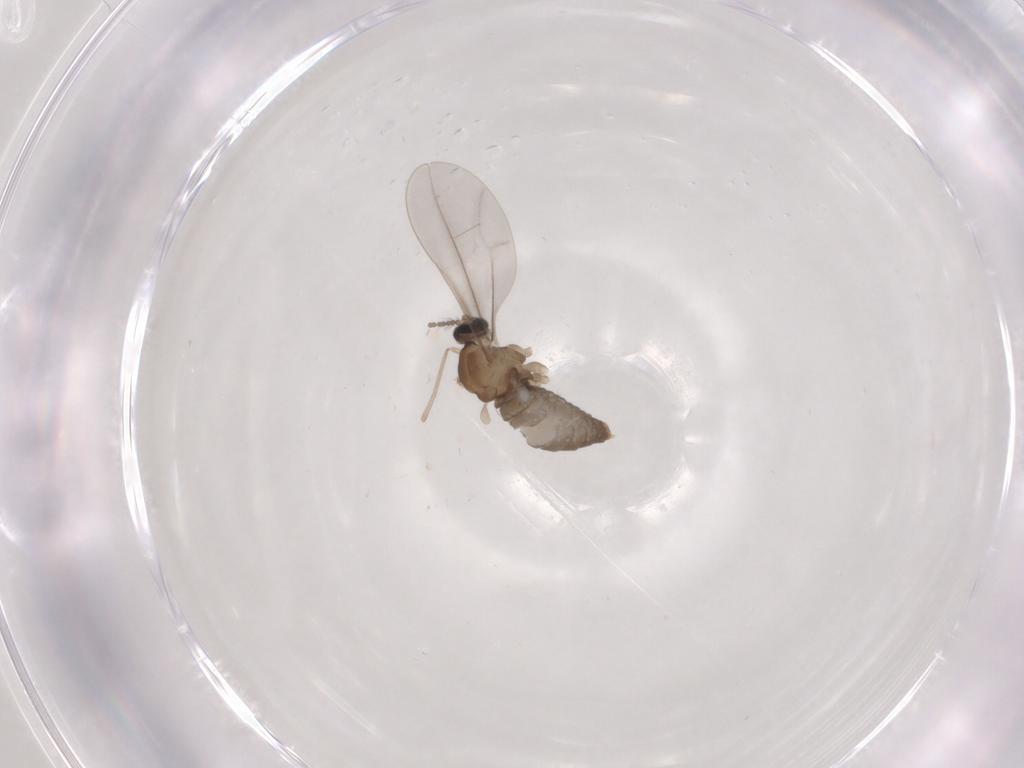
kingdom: Animalia
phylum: Arthropoda
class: Insecta
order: Diptera
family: Cecidomyiidae
